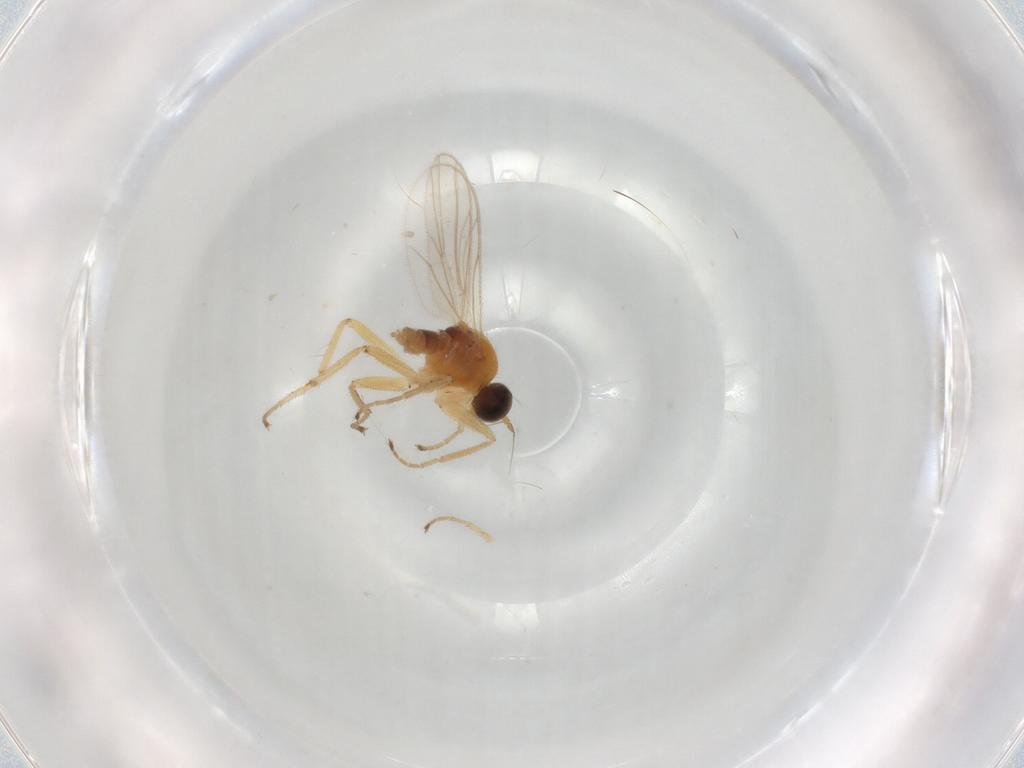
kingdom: Animalia
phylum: Arthropoda
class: Insecta
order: Diptera
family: Hybotidae
